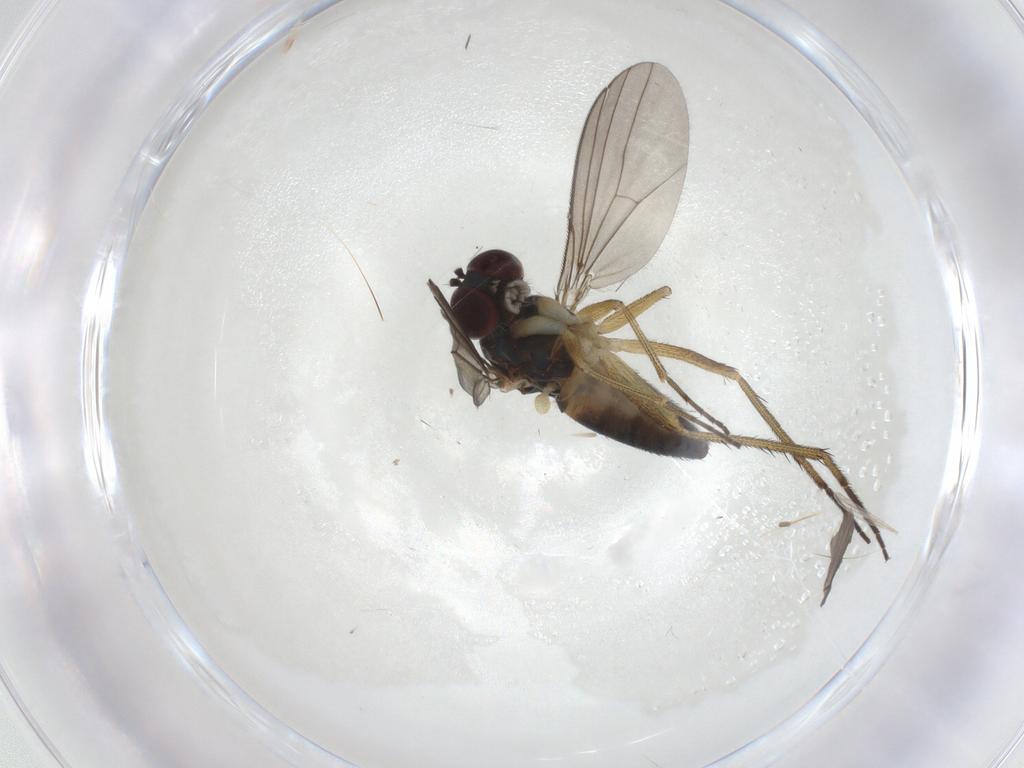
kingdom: Animalia
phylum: Arthropoda
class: Insecta
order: Diptera
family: Dolichopodidae
